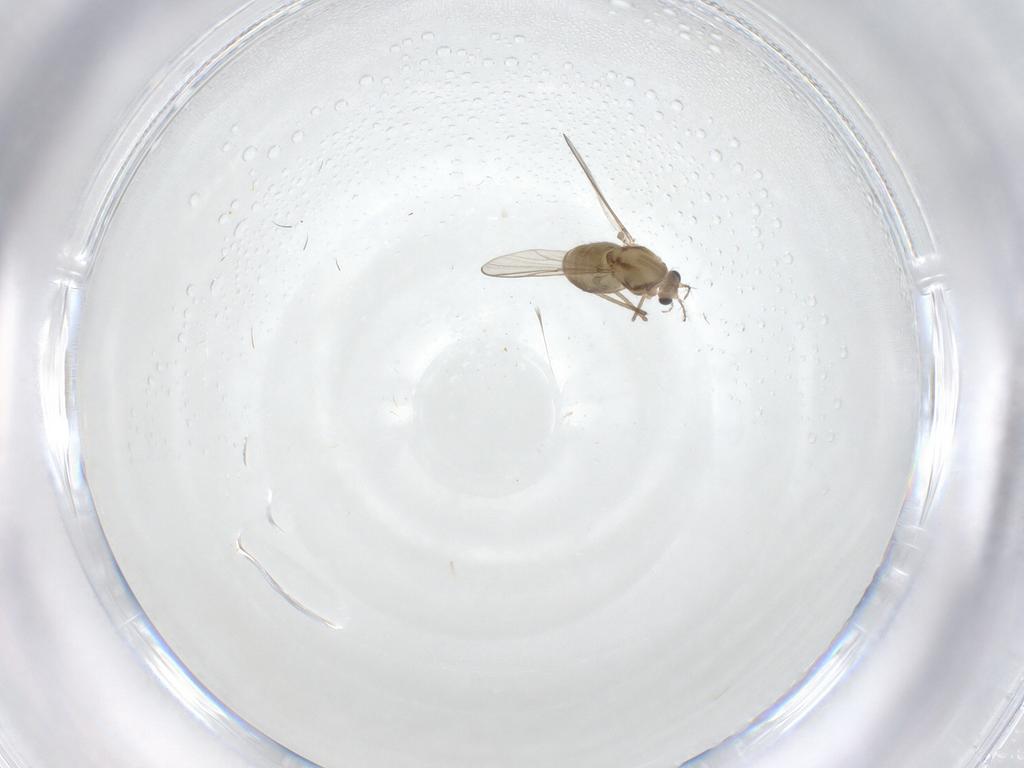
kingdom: Animalia
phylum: Arthropoda
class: Insecta
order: Diptera
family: Chironomidae
